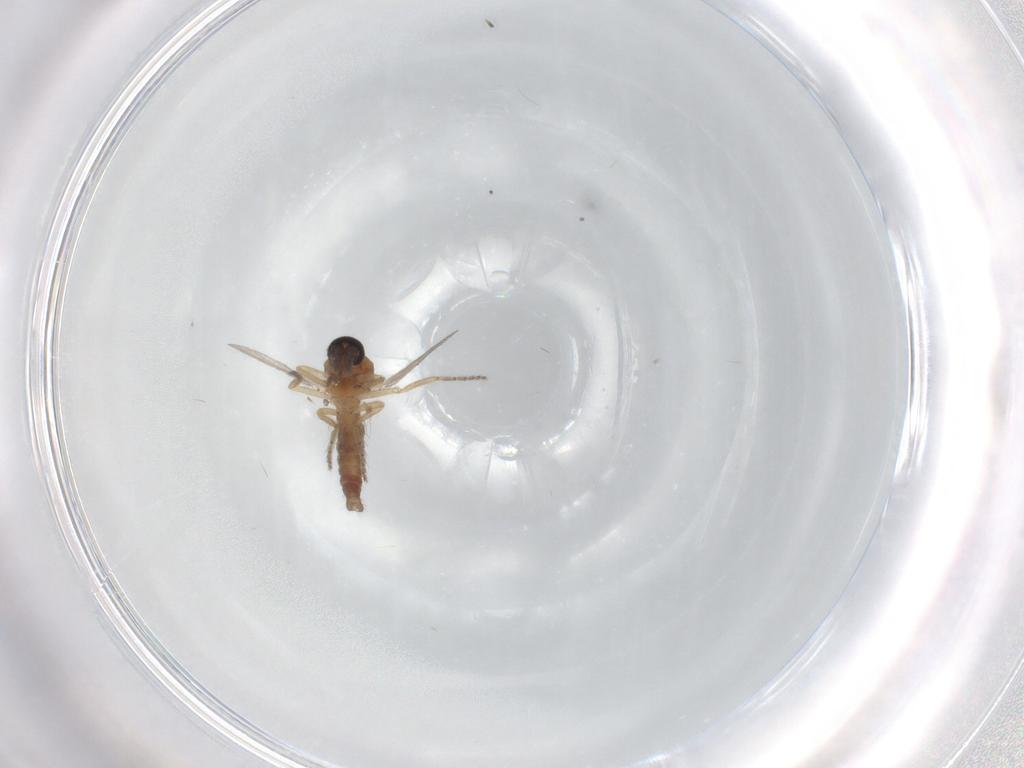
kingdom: Animalia
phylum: Arthropoda
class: Insecta
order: Diptera
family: Ceratopogonidae
